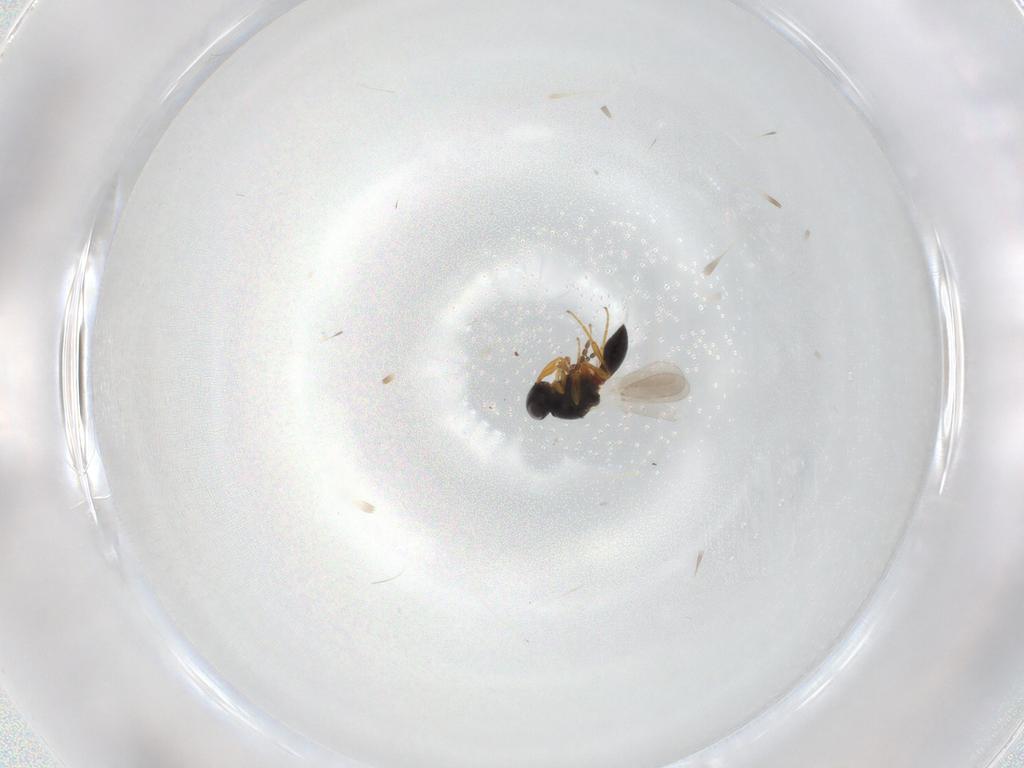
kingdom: Animalia
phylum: Arthropoda
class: Insecta
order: Hymenoptera
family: Platygastridae
